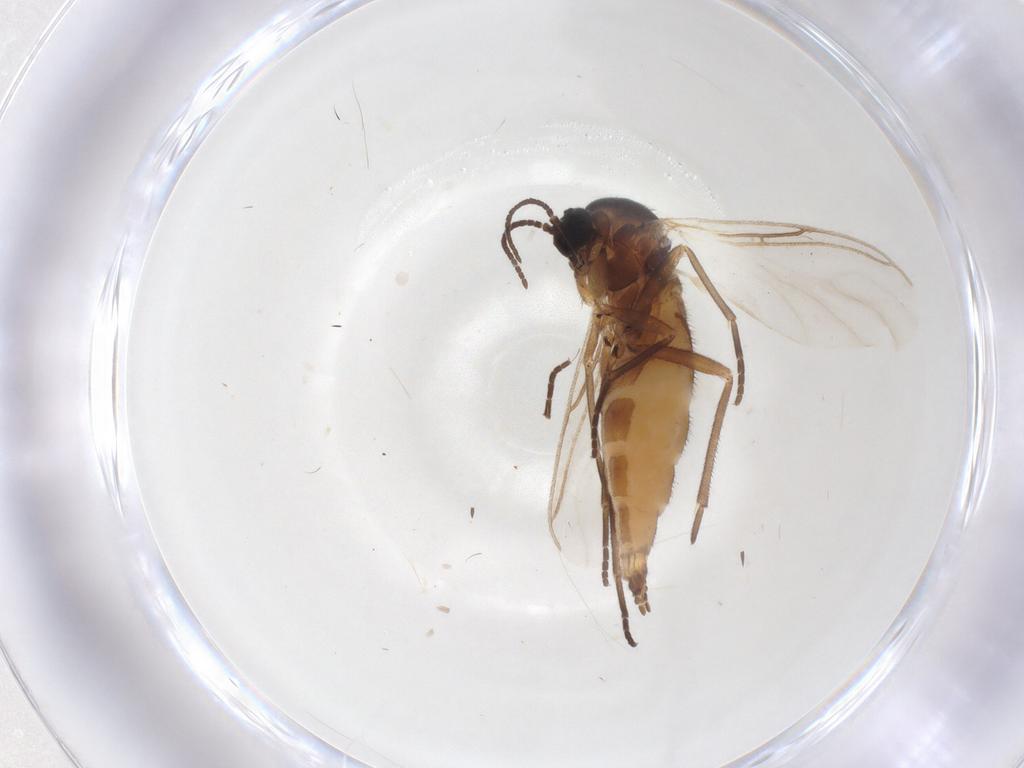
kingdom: Animalia
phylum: Arthropoda
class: Insecta
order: Diptera
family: Sciaridae
